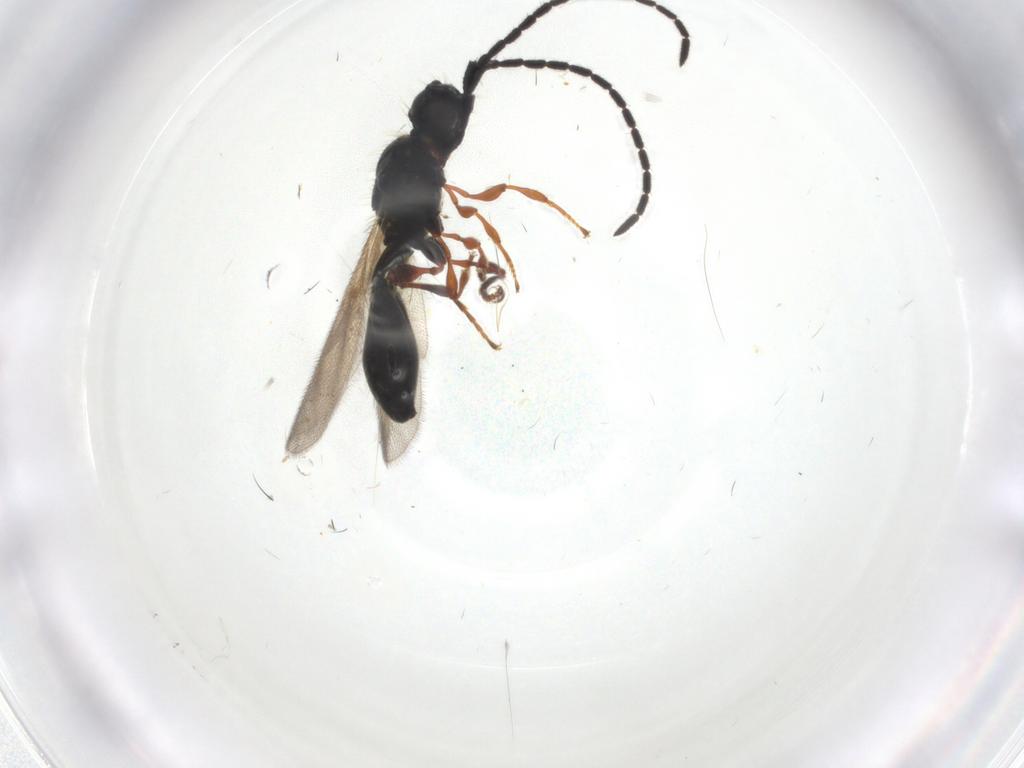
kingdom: Animalia
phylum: Arthropoda
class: Insecta
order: Hymenoptera
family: Diapriidae
